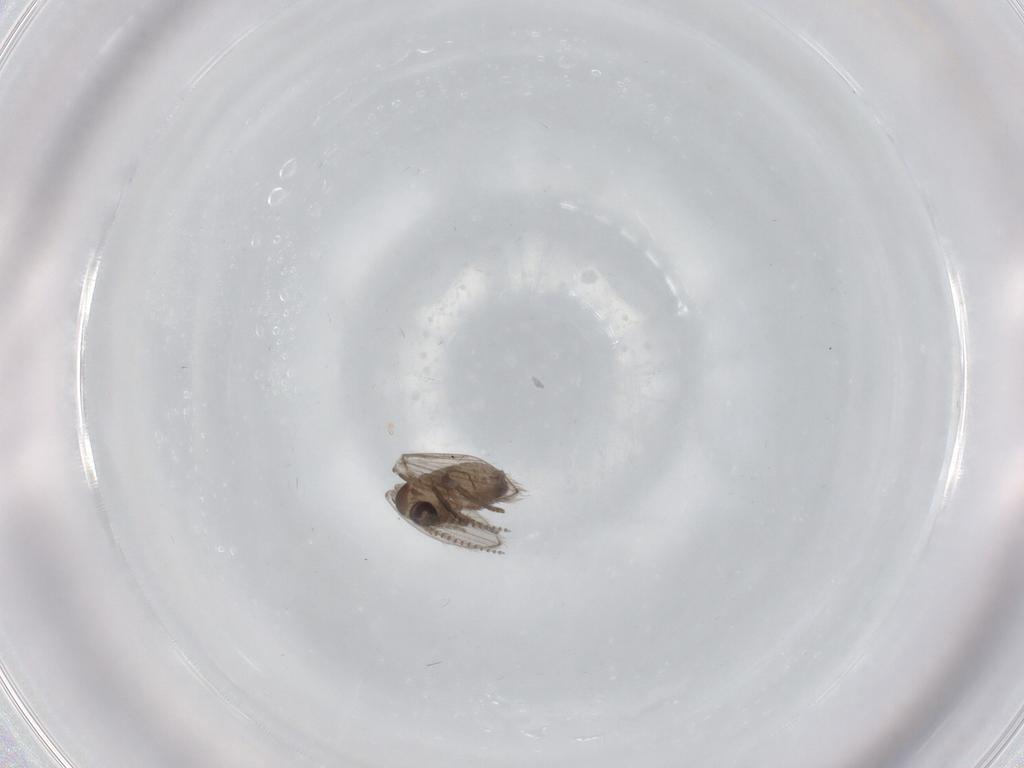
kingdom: Animalia
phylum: Arthropoda
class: Insecta
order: Diptera
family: Psychodidae
